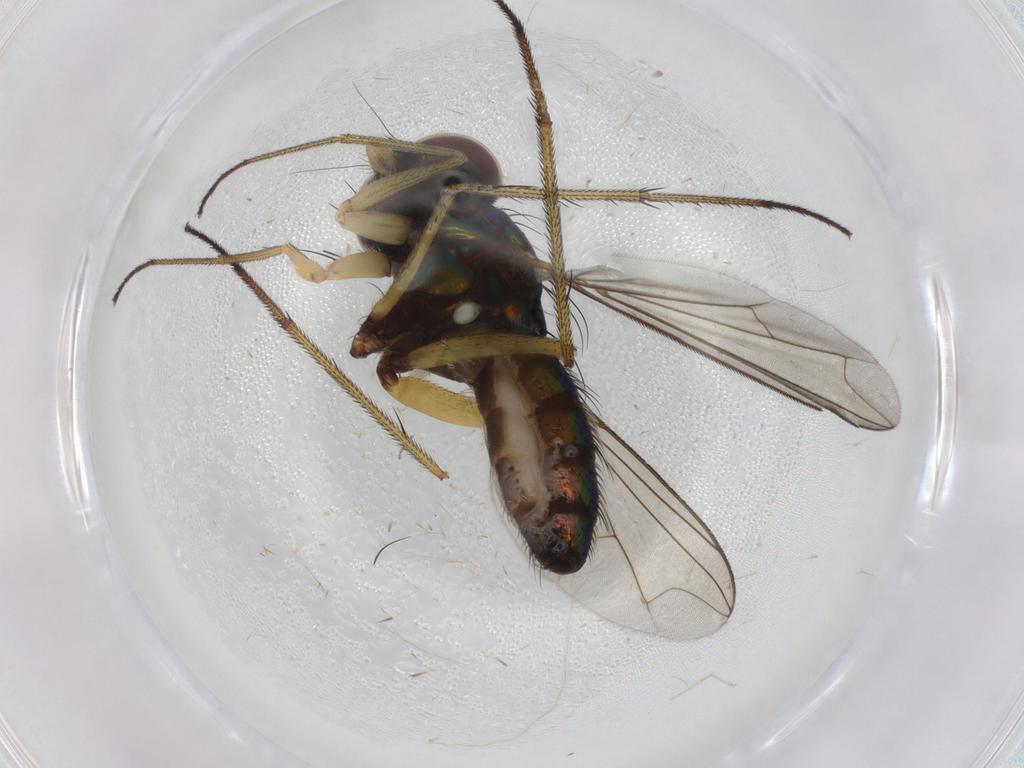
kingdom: Animalia
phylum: Arthropoda
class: Insecta
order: Diptera
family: Dolichopodidae
